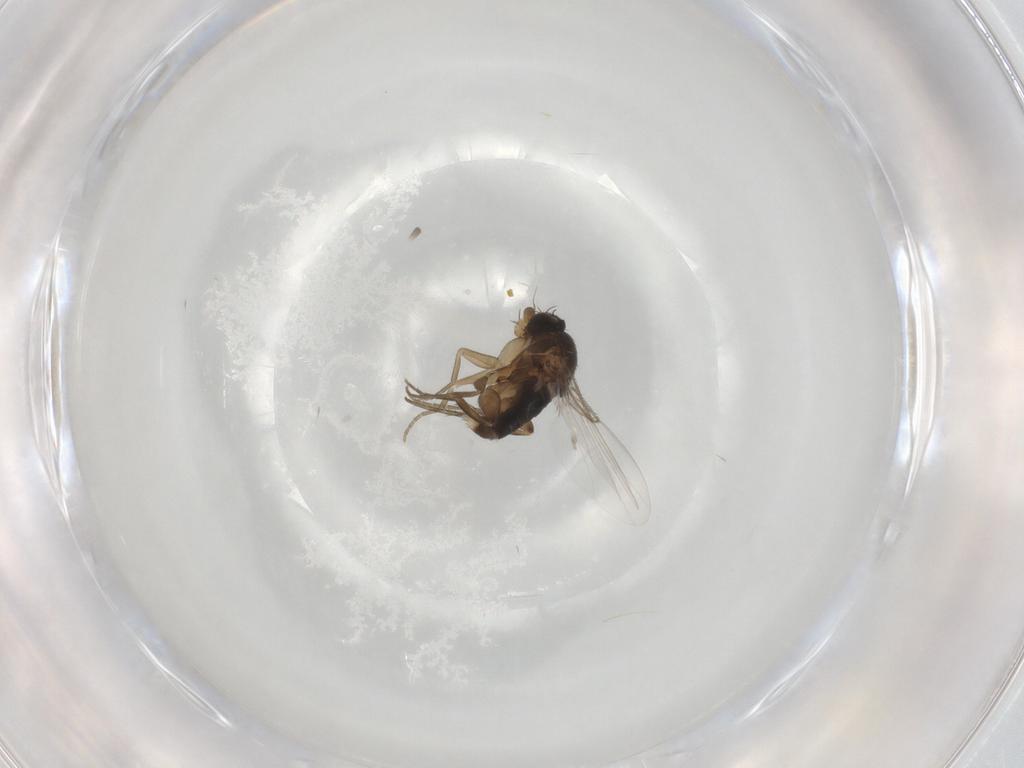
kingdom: Animalia
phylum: Arthropoda
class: Insecta
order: Diptera
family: Phoridae
